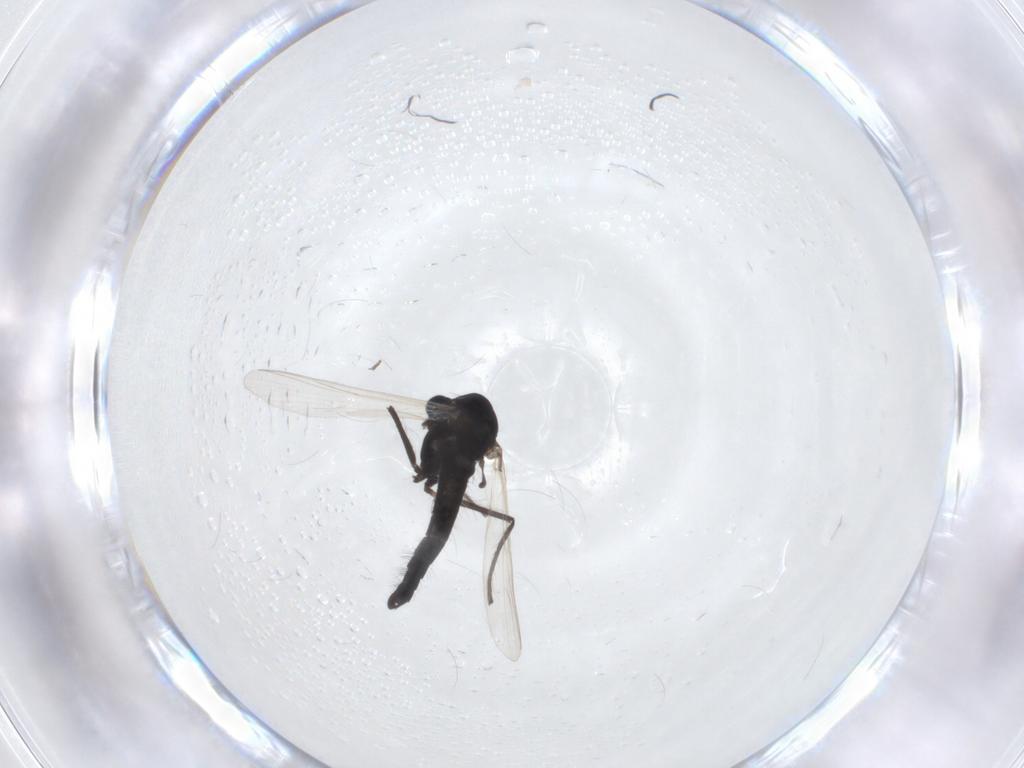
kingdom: Animalia
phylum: Arthropoda
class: Insecta
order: Diptera
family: Chironomidae
